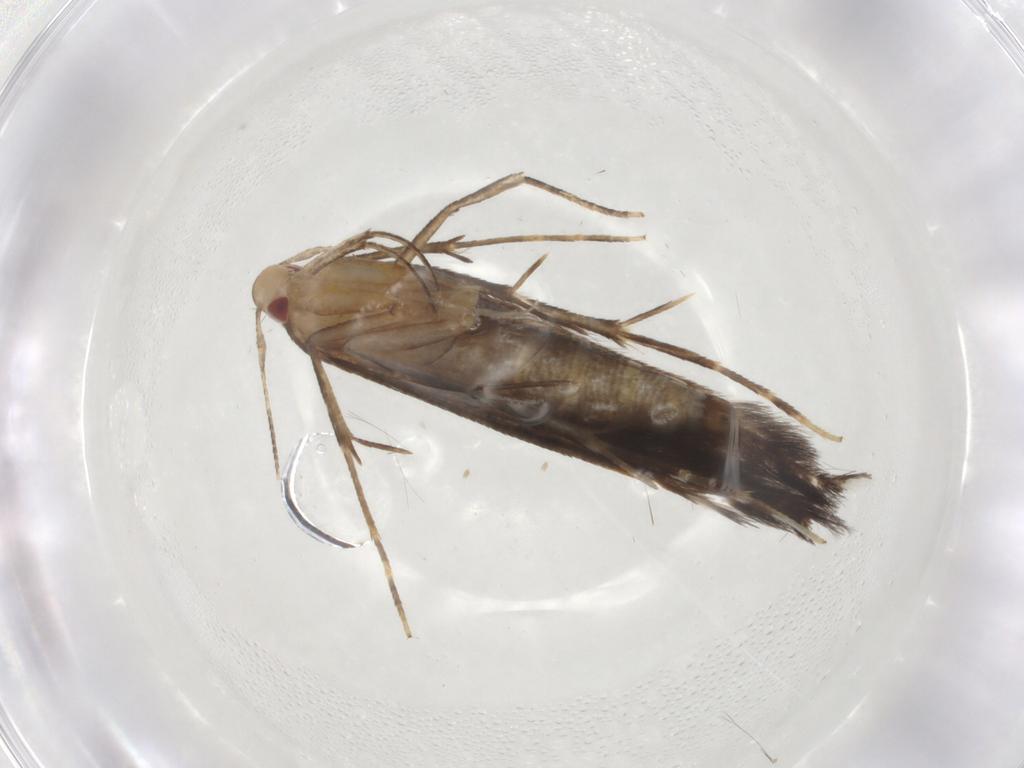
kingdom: Animalia
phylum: Arthropoda
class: Insecta
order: Lepidoptera
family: Cosmopterigidae
